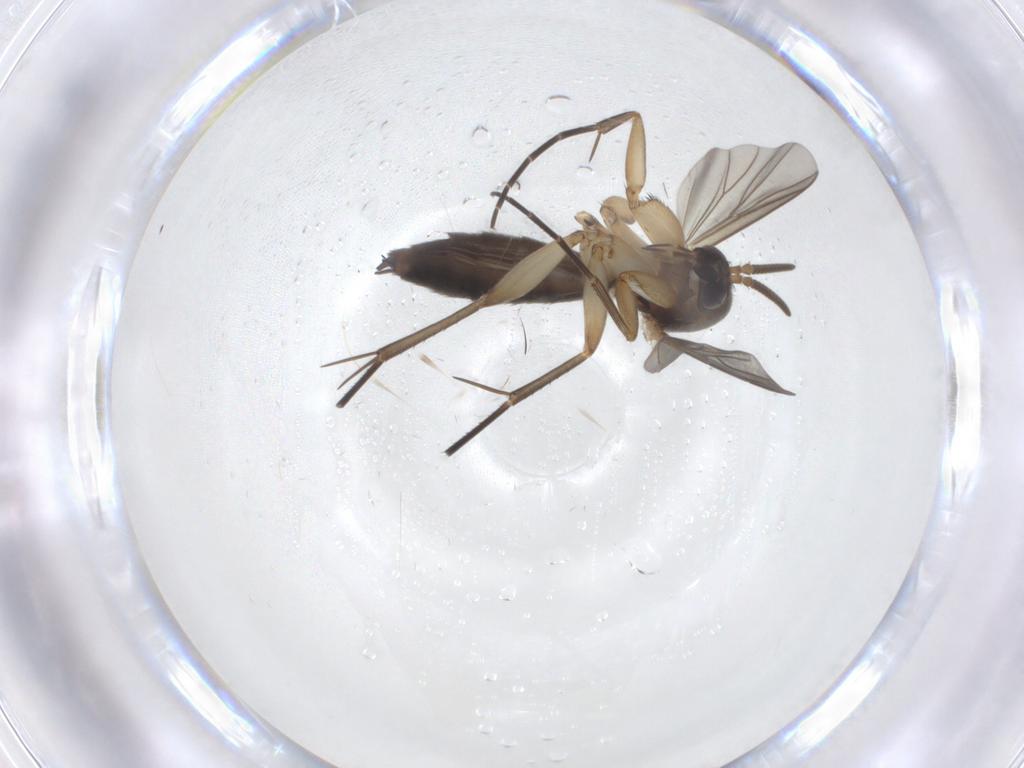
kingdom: Animalia
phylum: Arthropoda
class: Insecta
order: Diptera
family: Mycetophilidae
